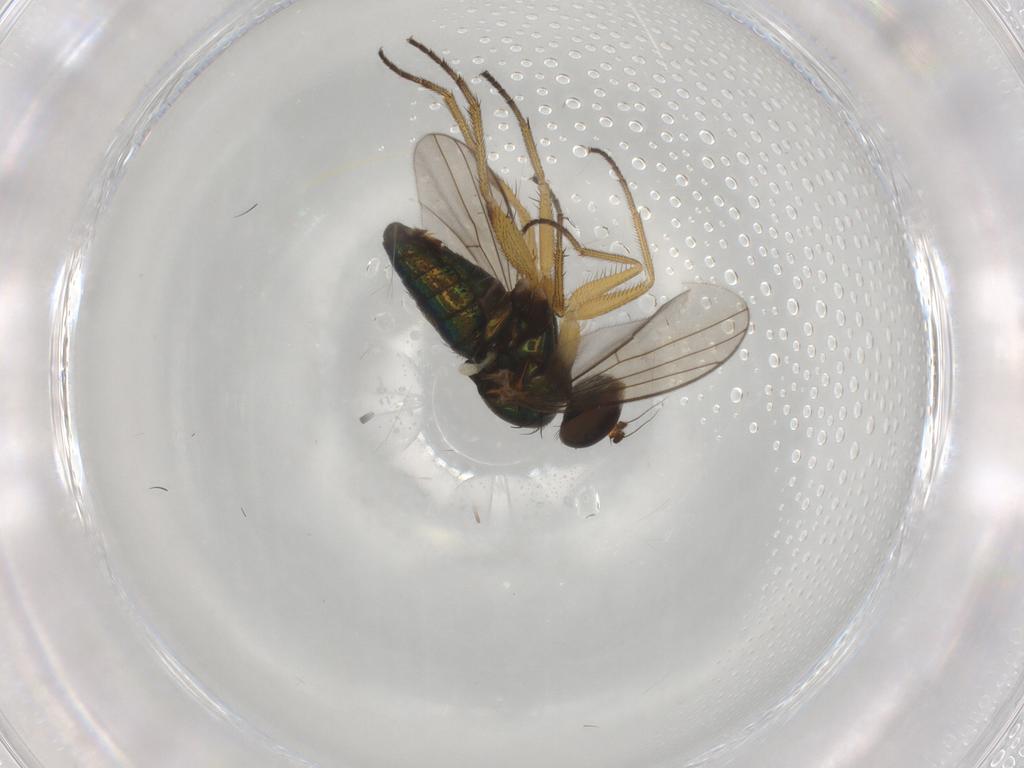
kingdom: Animalia
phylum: Arthropoda
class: Insecta
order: Diptera
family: Dolichopodidae
